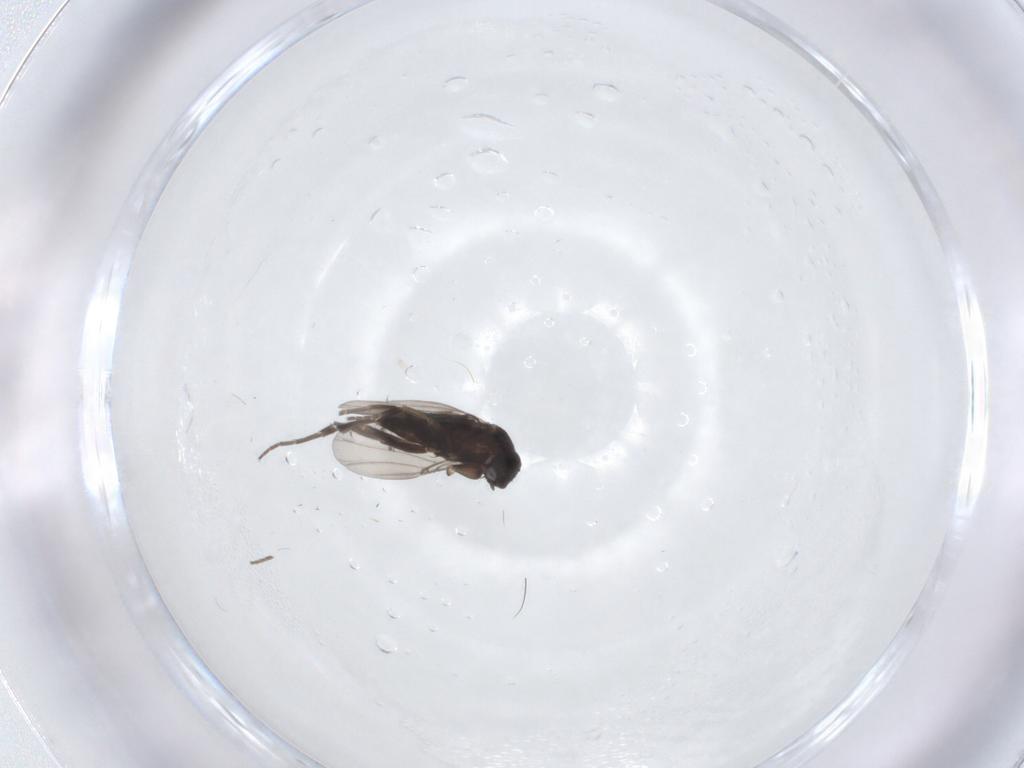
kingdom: Animalia
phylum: Arthropoda
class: Insecta
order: Diptera
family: Phoridae
